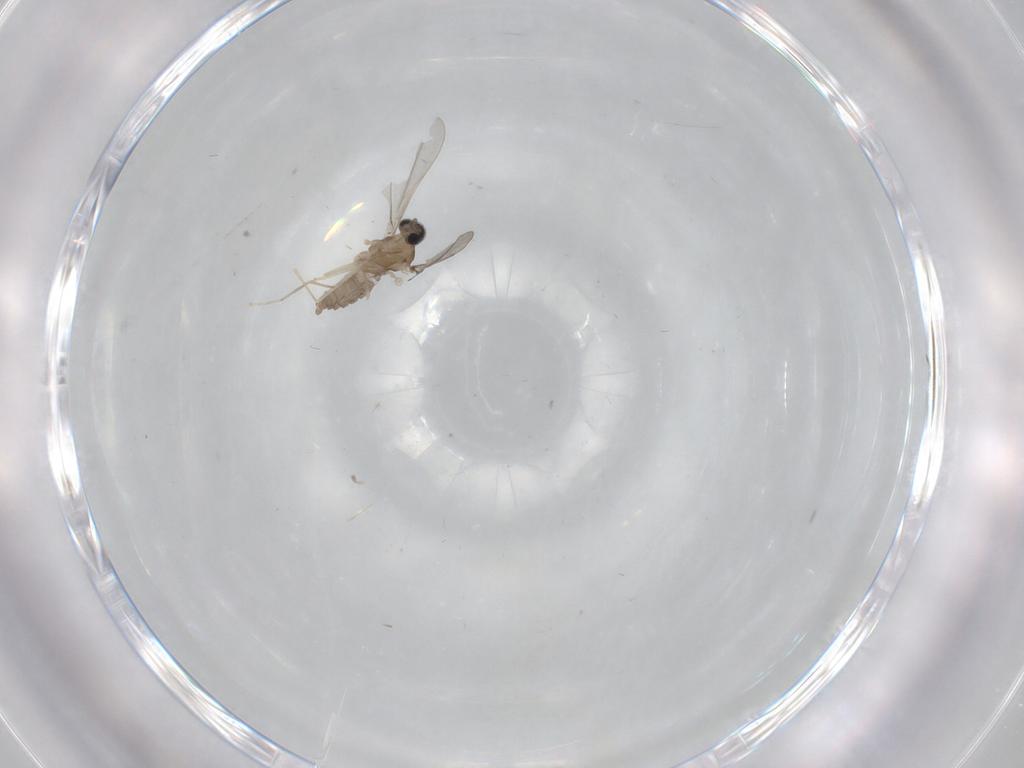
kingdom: Animalia
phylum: Arthropoda
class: Insecta
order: Diptera
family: Cecidomyiidae
